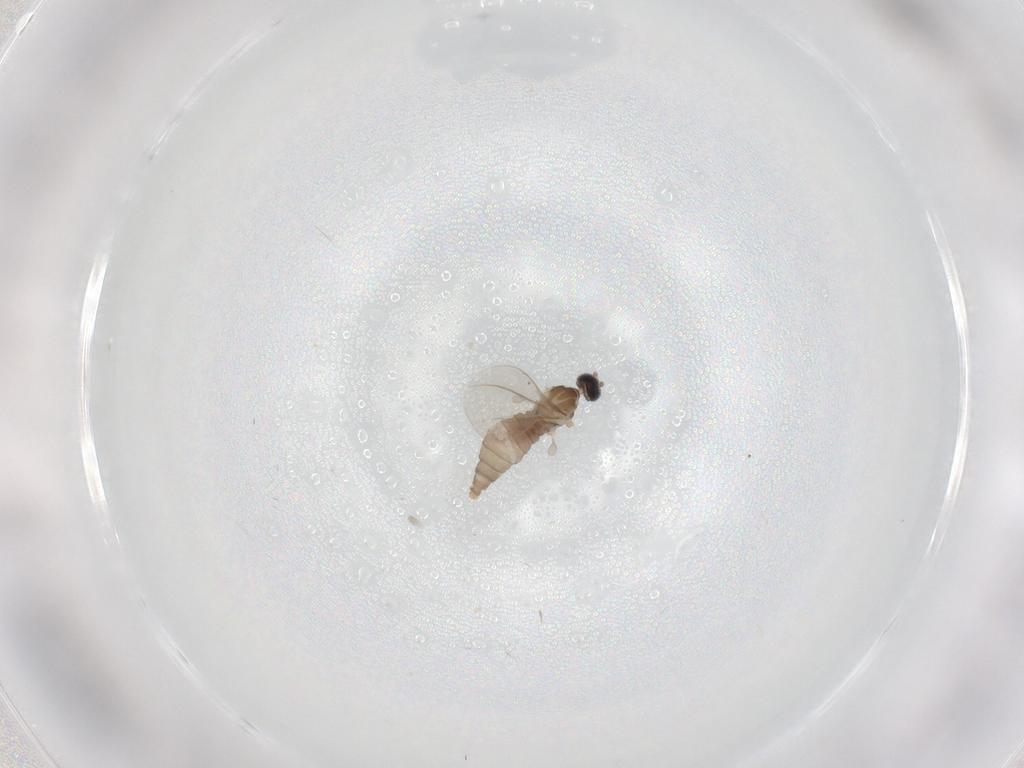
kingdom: Animalia
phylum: Arthropoda
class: Insecta
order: Diptera
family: Cecidomyiidae
